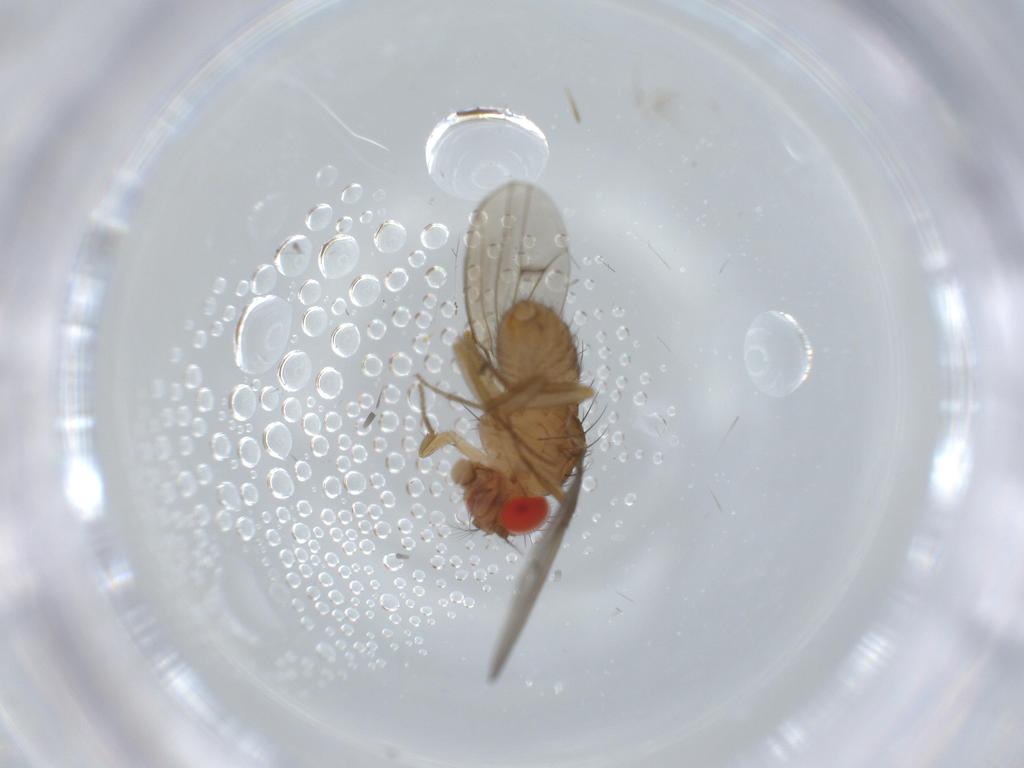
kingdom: Animalia
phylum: Arthropoda
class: Insecta
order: Diptera
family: Drosophilidae
